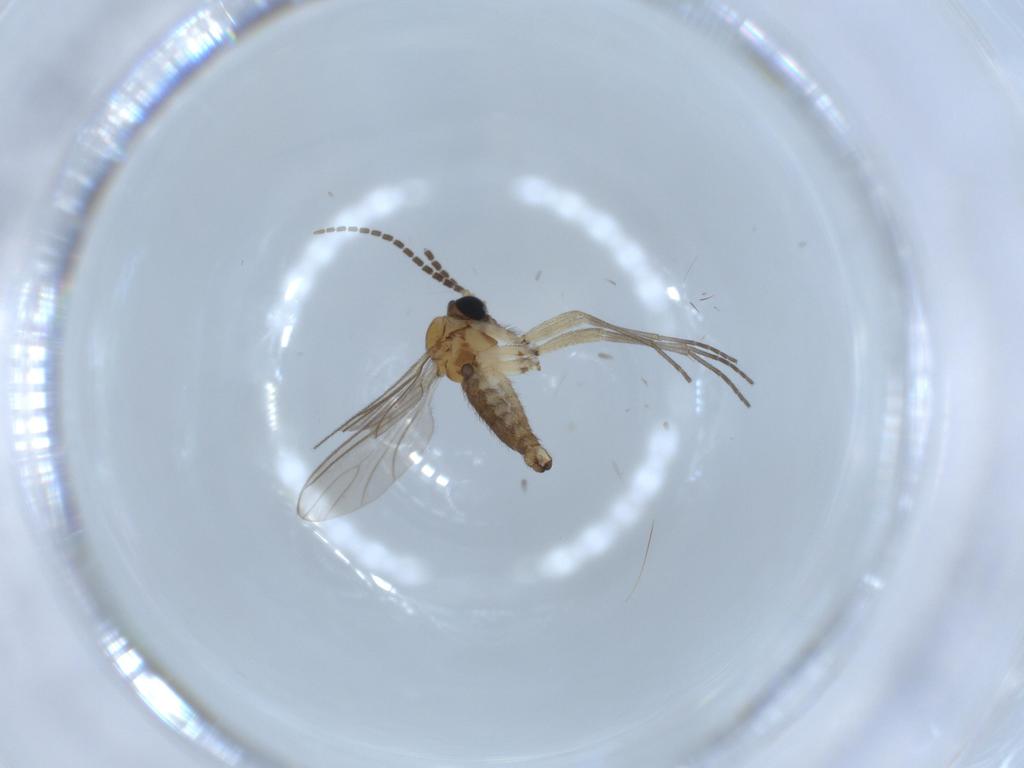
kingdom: Animalia
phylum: Arthropoda
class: Insecta
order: Diptera
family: Sciaridae
